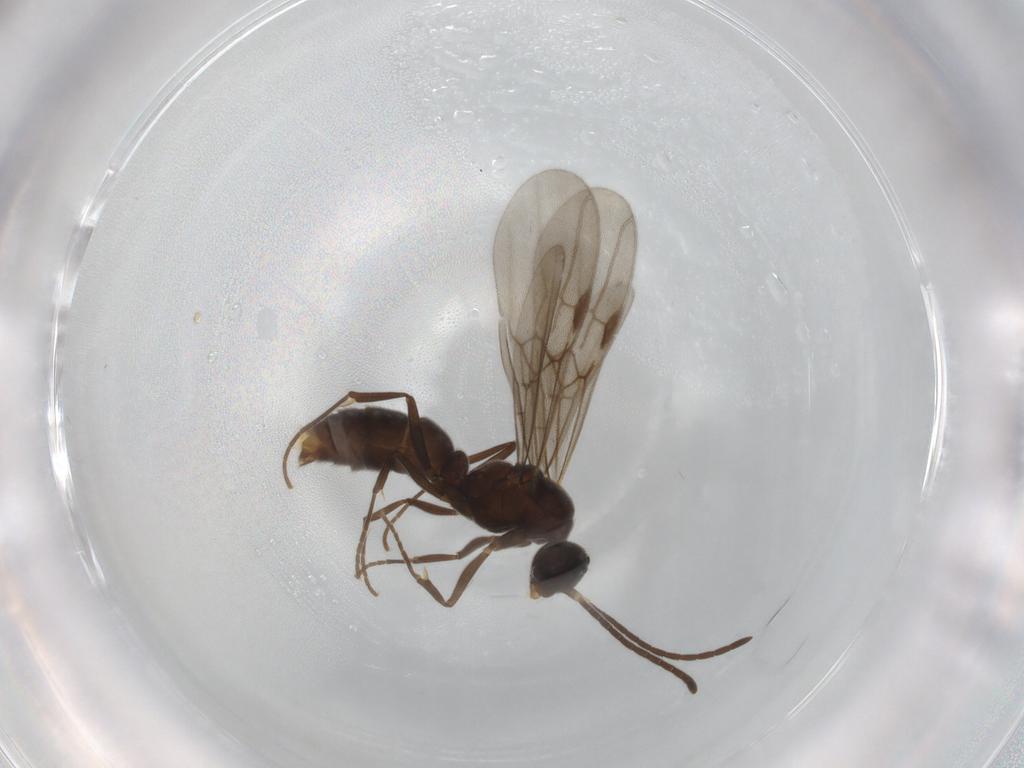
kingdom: Animalia
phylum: Arthropoda
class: Insecta
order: Hymenoptera
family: Formicidae
